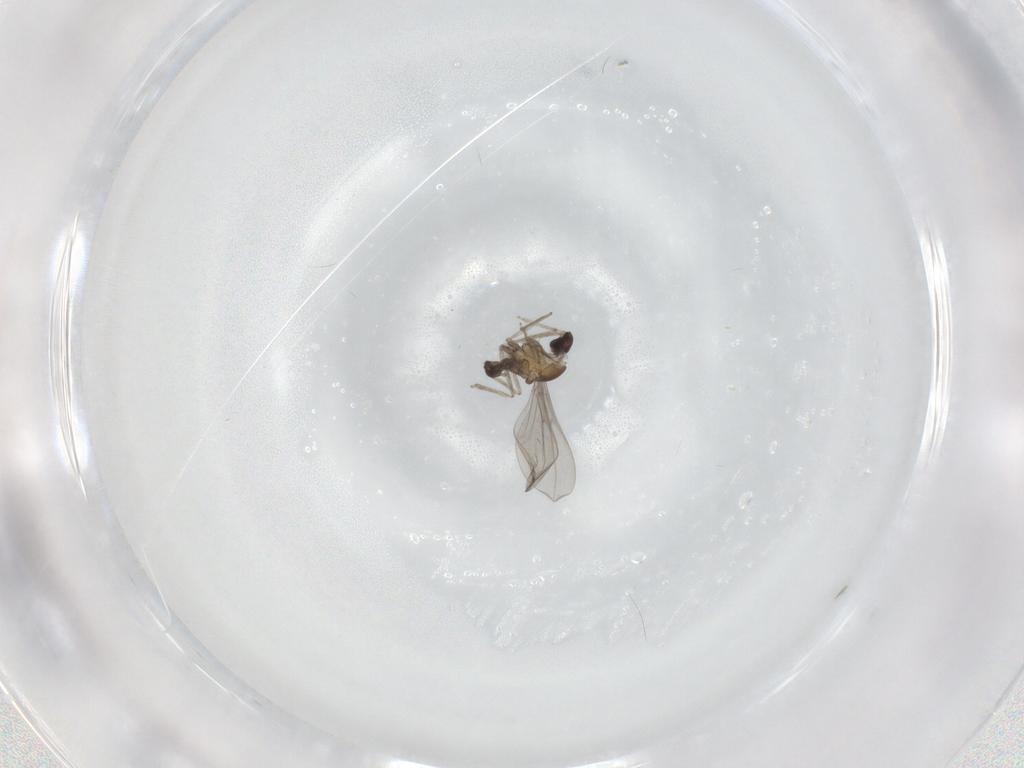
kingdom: Animalia
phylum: Arthropoda
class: Insecta
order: Diptera
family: Cecidomyiidae
